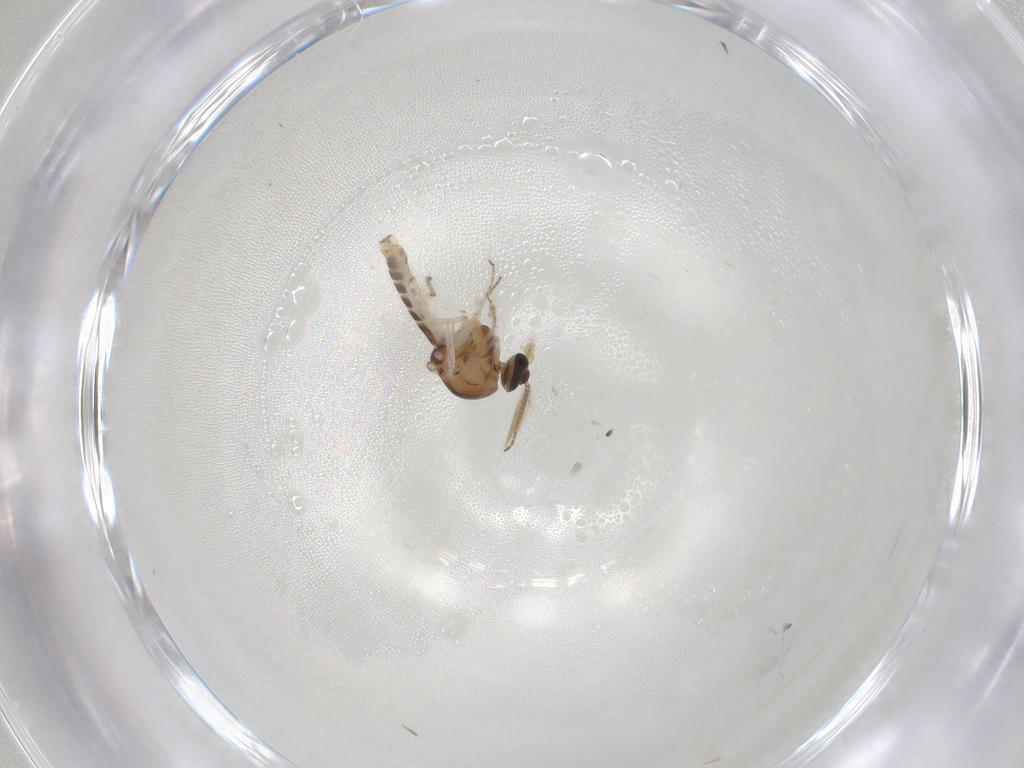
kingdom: Animalia
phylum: Arthropoda
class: Insecta
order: Diptera
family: Ceratopogonidae
